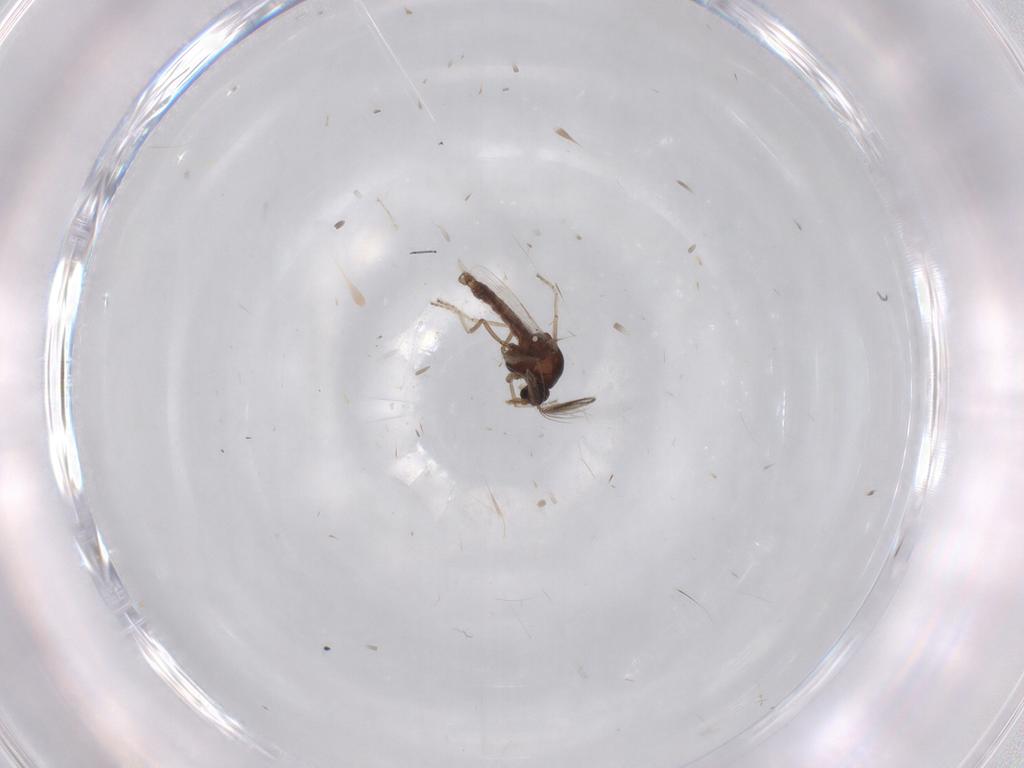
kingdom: Animalia
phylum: Arthropoda
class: Insecta
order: Diptera
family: Ceratopogonidae
